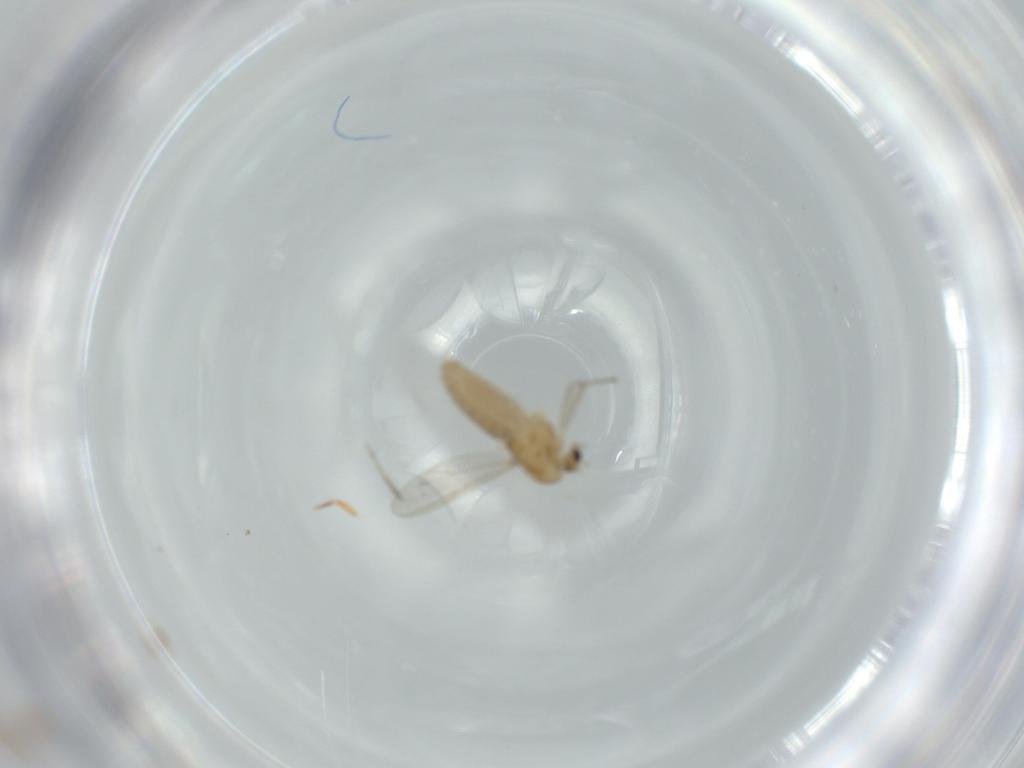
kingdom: Animalia
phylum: Arthropoda
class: Insecta
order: Diptera
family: Chironomidae
